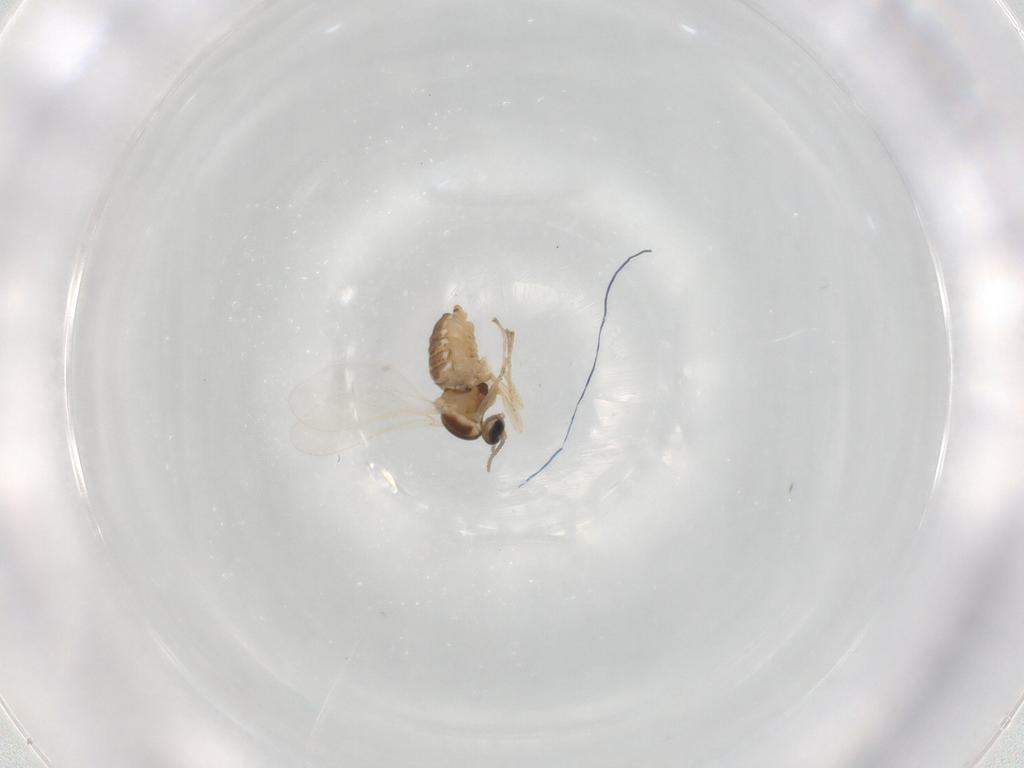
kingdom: Animalia
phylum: Arthropoda
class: Insecta
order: Diptera
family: Cecidomyiidae
